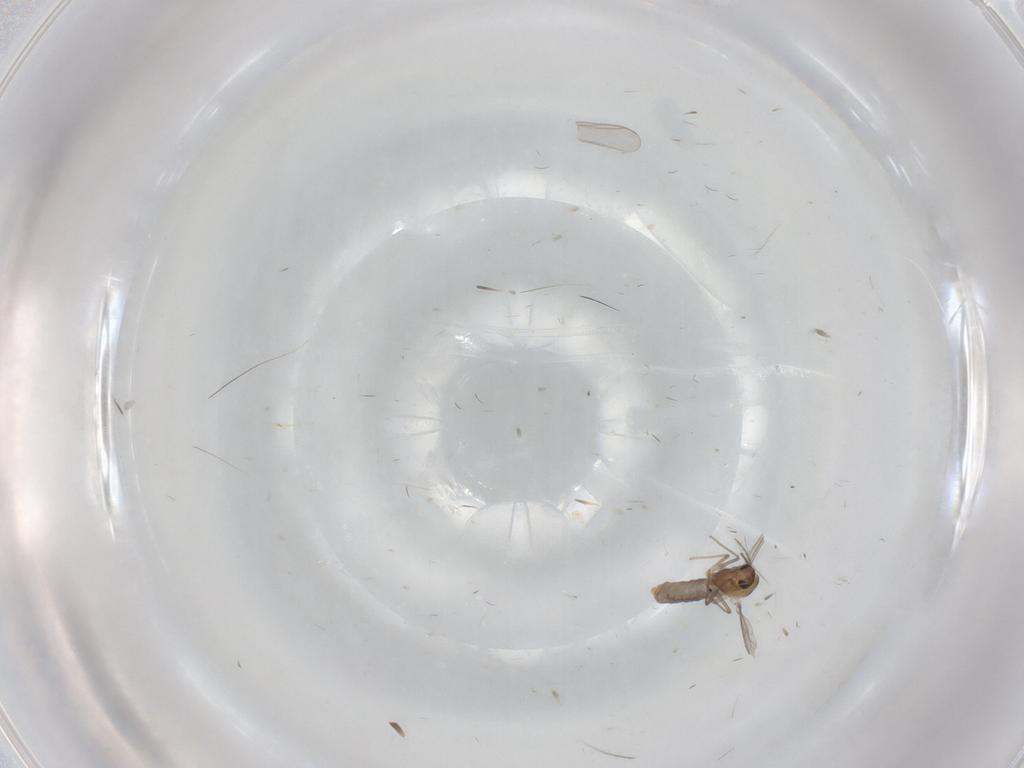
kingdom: Animalia
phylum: Arthropoda
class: Insecta
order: Diptera
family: Chironomidae
